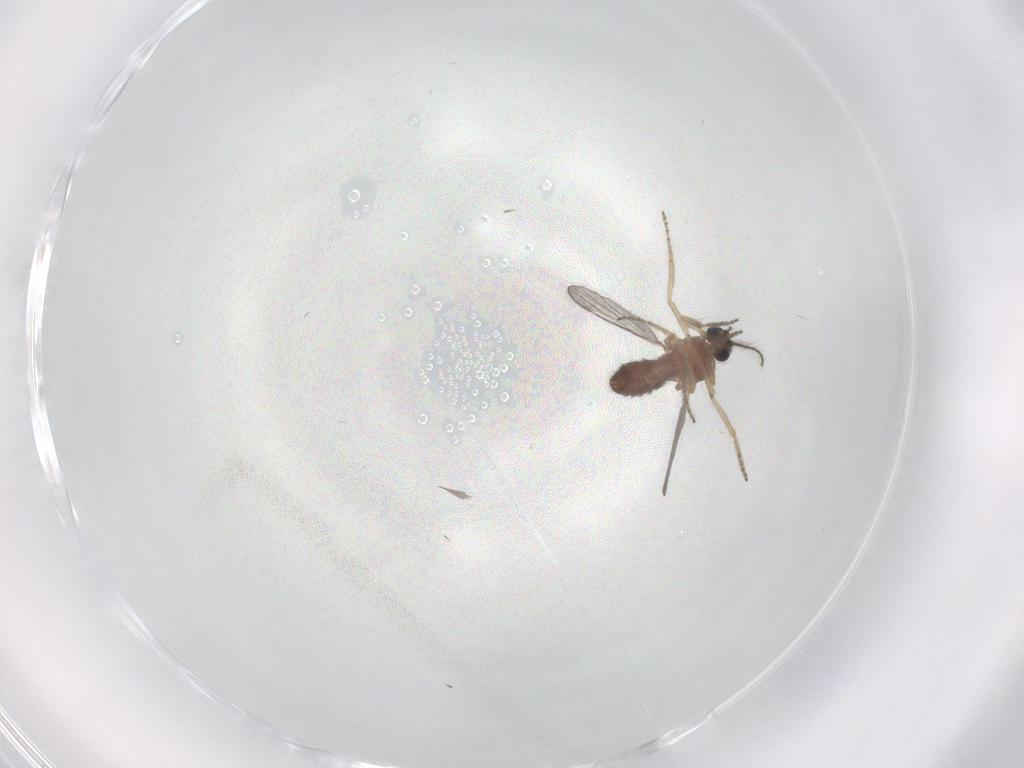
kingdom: Animalia
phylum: Arthropoda
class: Insecta
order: Diptera
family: Ceratopogonidae
